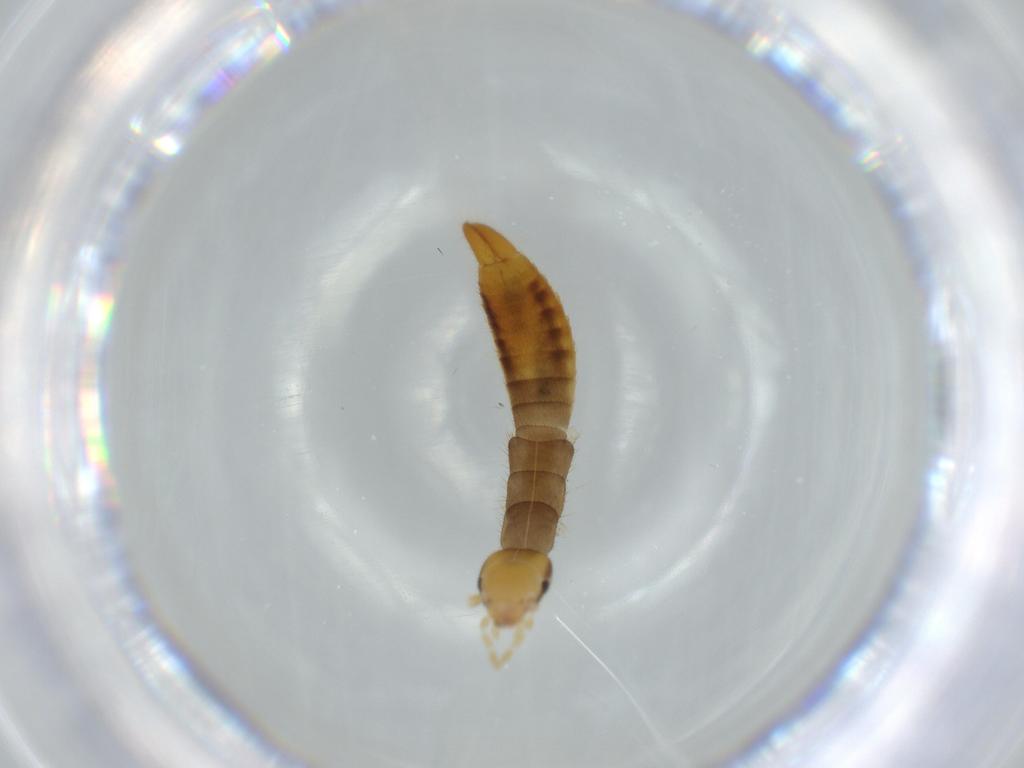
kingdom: Animalia
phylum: Arthropoda
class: Insecta
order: Dermaptera
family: Forficulidae
